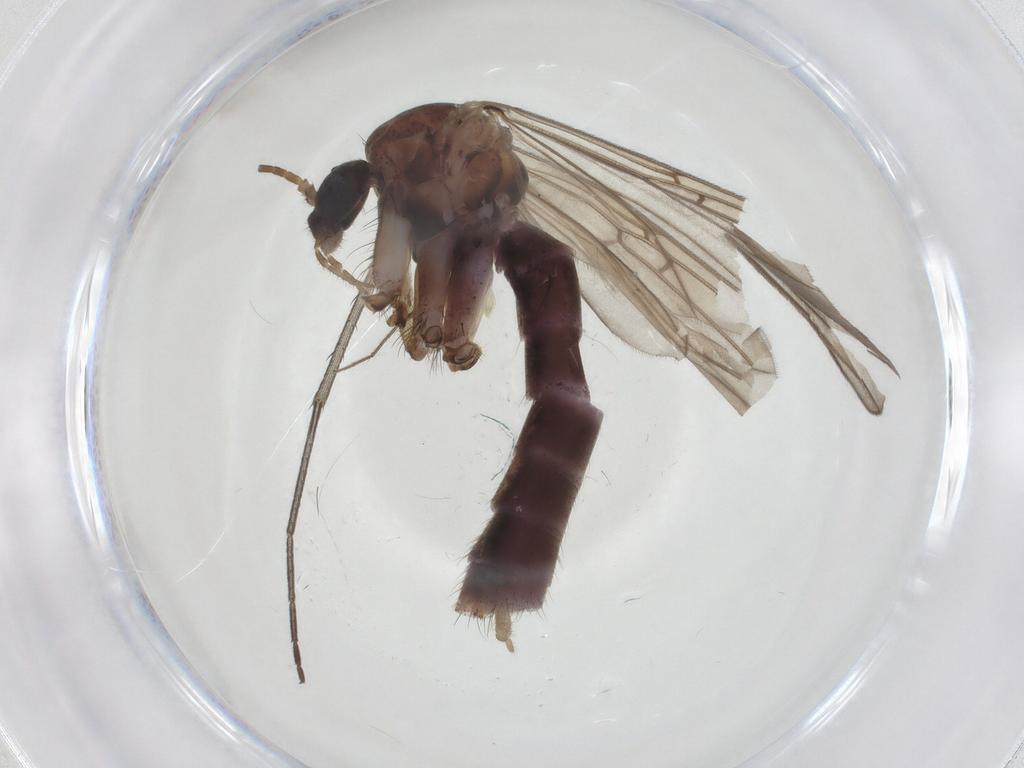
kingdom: Animalia
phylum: Arthropoda
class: Insecta
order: Diptera
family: Mycetophilidae
